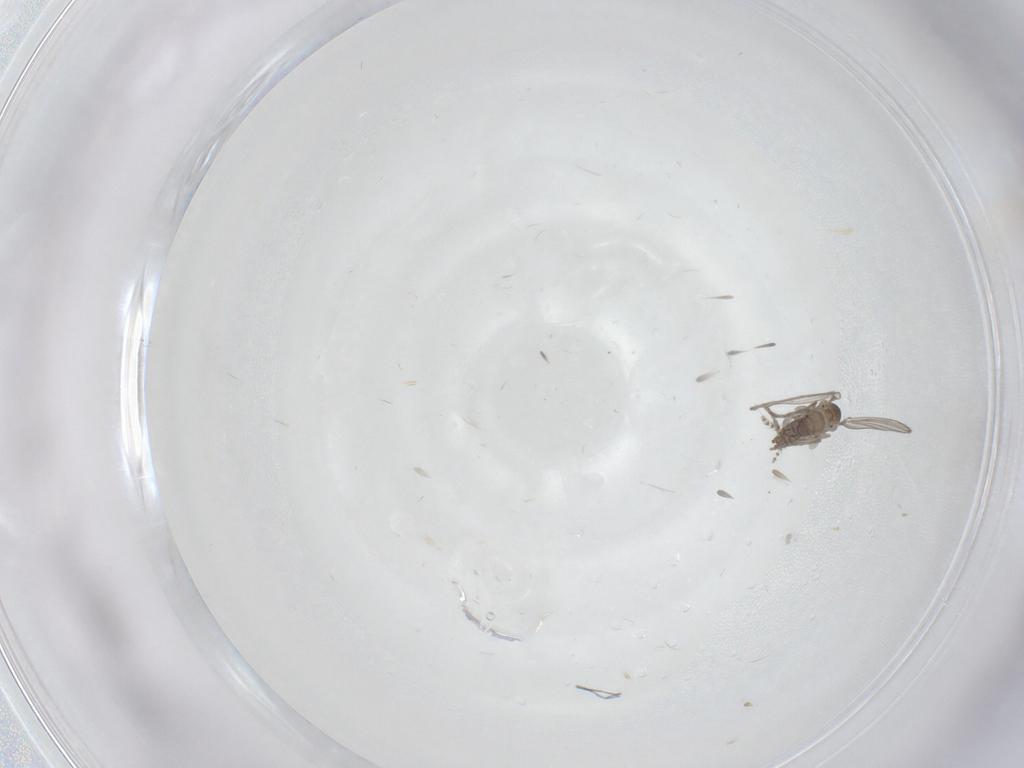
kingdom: Animalia
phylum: Arthropoda
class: Insecta
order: Diptera
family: Psychodidae
